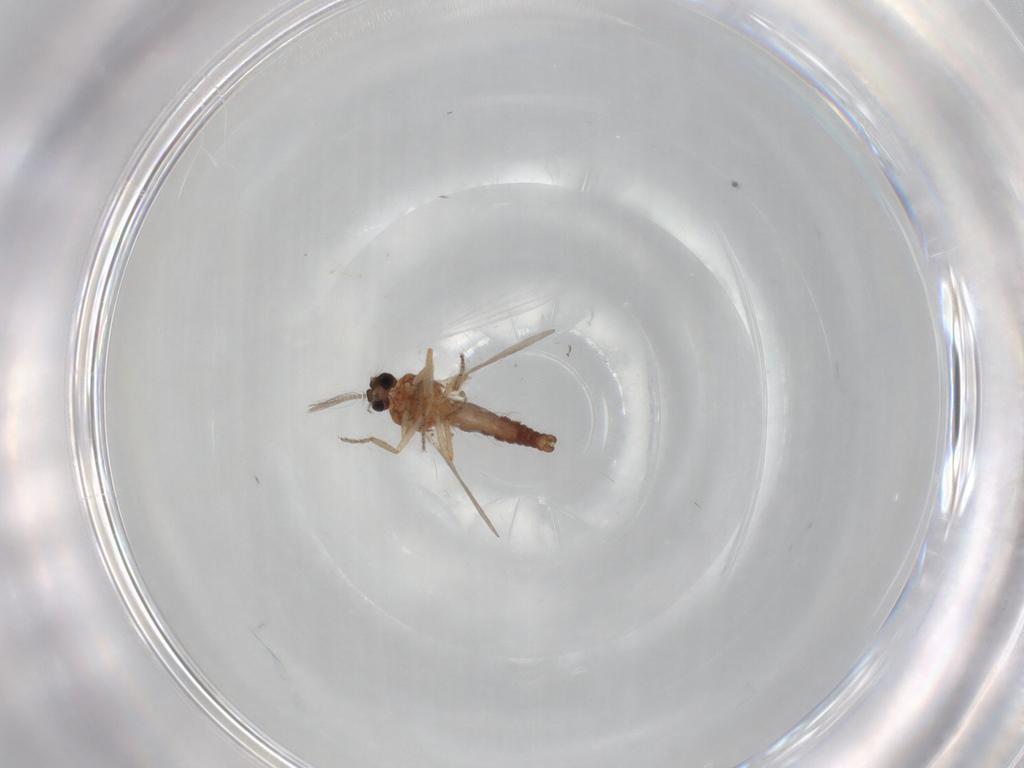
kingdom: Animalia
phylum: Arthropoda
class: Insecta
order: Diptera
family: Ceratopogonidae
